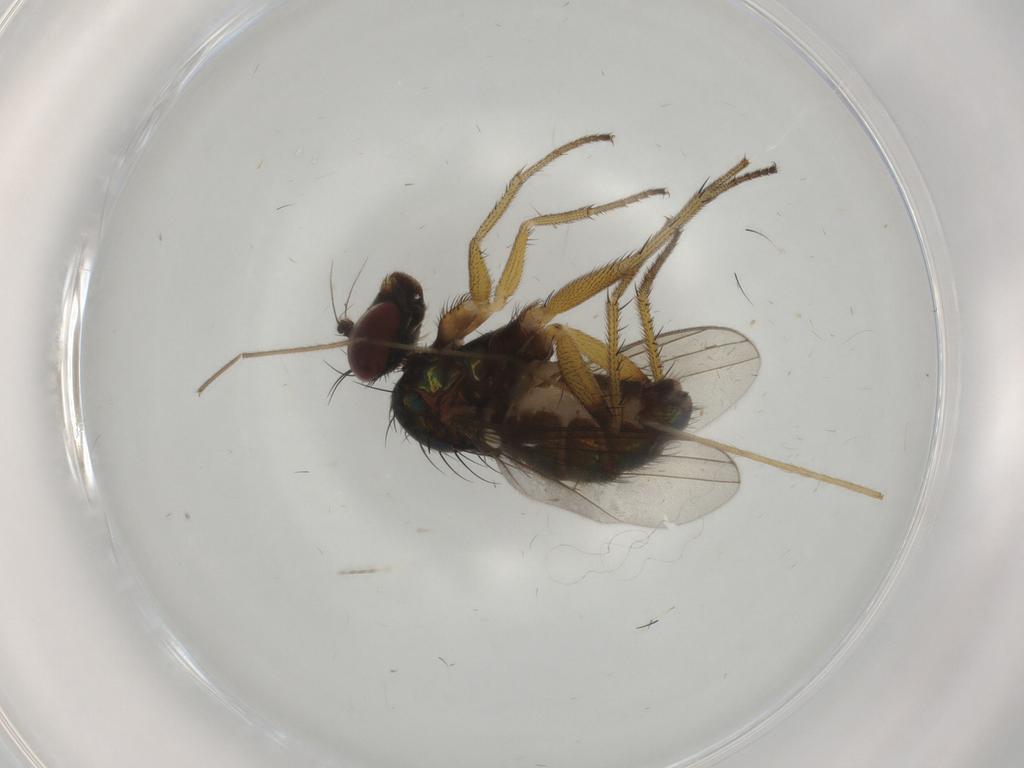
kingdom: Animalia
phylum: Arthropoda
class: Insecta
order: Diptera
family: Dolichopodidae
